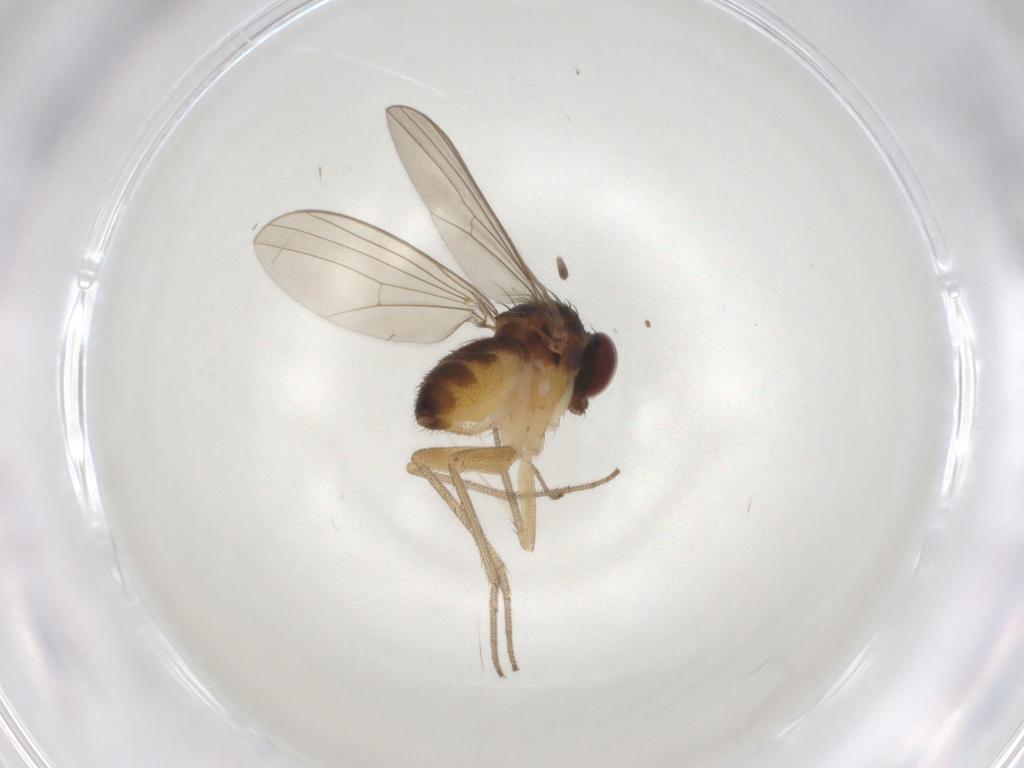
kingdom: Animalia
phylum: Arthropoda
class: Insecta
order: Diptera
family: Dolichopodidae
